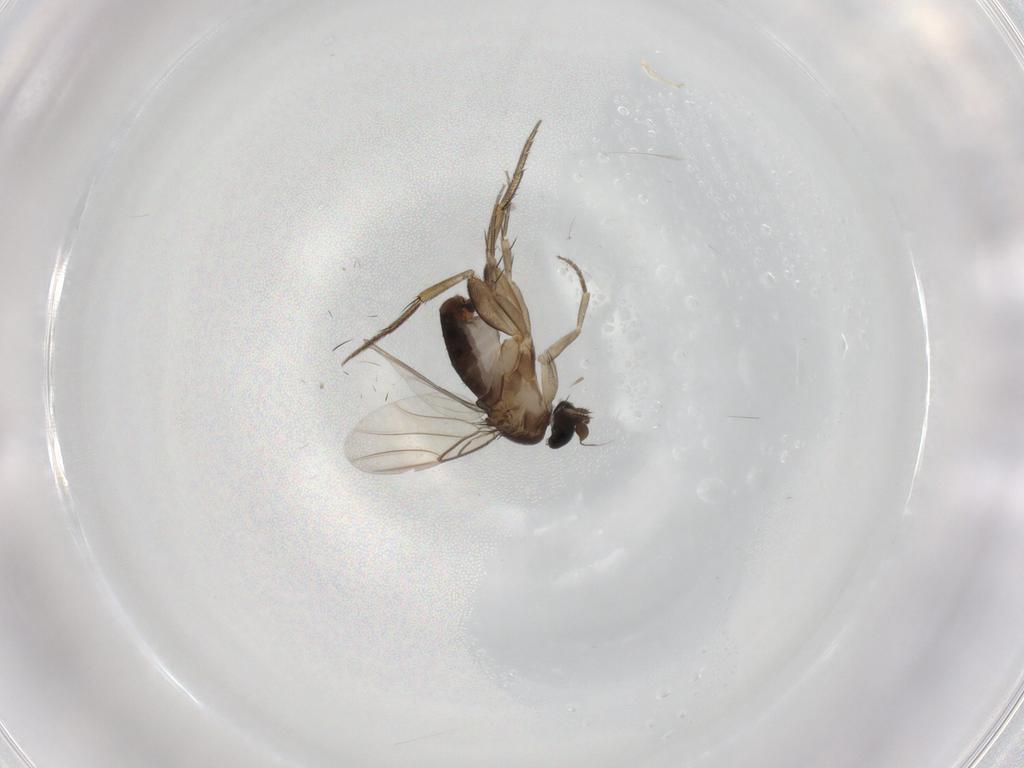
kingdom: Animalia
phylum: Arthropoda
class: Insecta
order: Diptera
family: Phoridae
